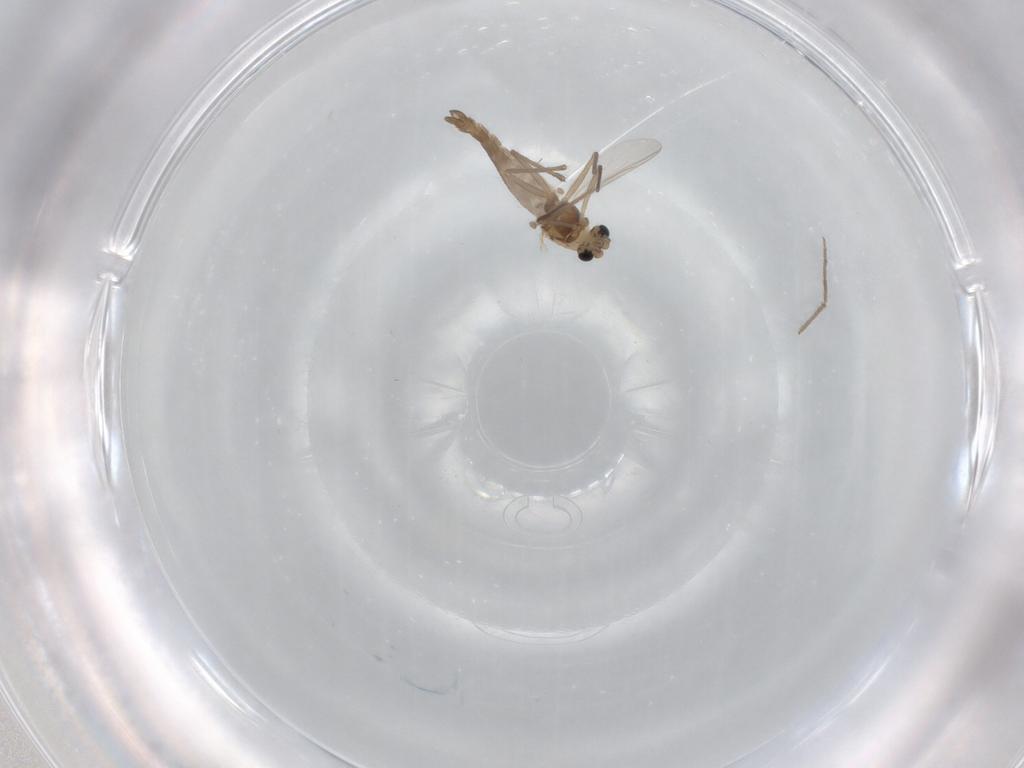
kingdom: Animalia
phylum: Arthropoda
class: Insecta
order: Diptera
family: Chironomidae
